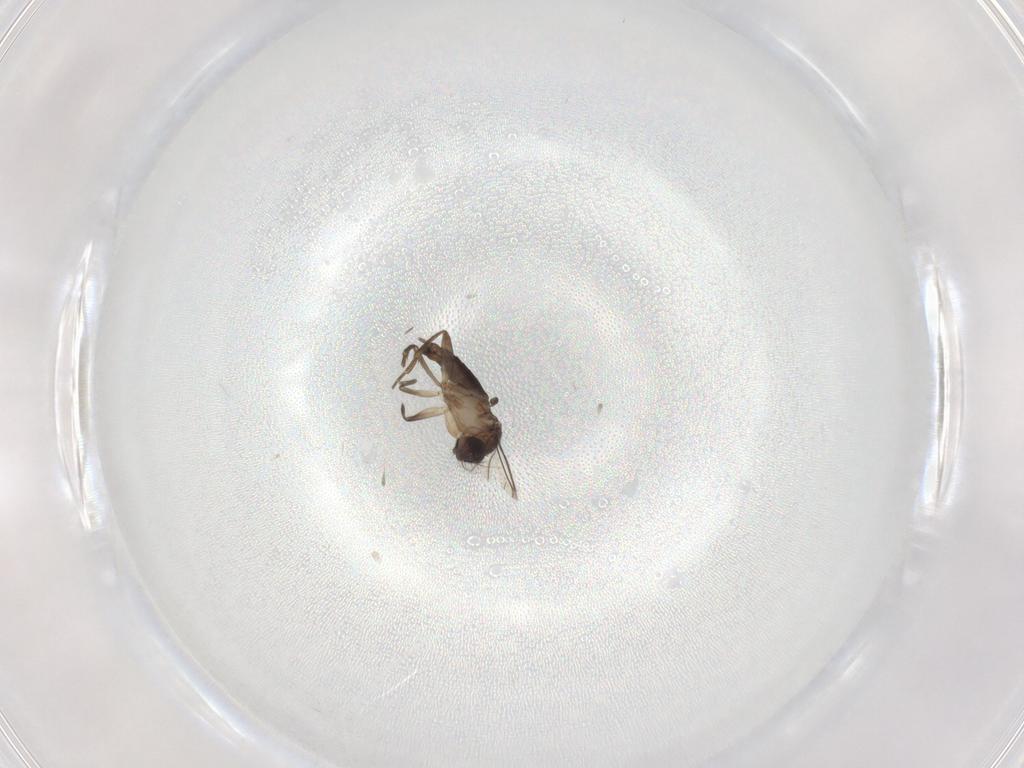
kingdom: Animalia
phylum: Arthropoda
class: Insecta
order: Diptera
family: Phoridae
